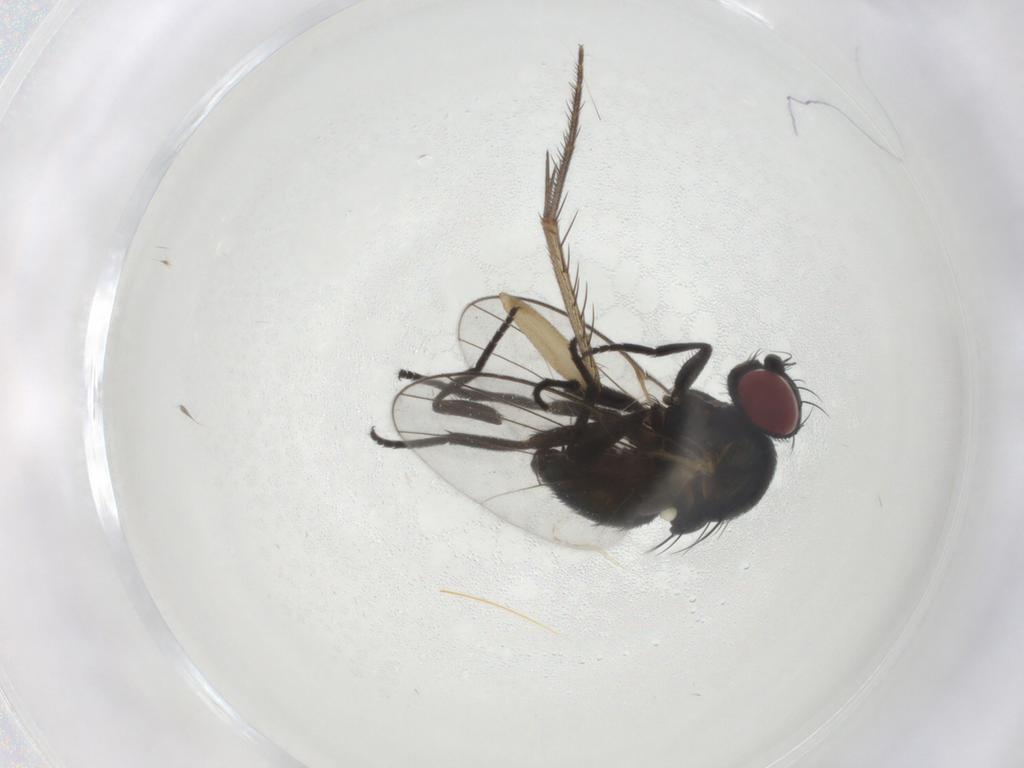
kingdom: Animalia
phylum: Arthropoda
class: Insecta
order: Diptera
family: Agromyzidae
